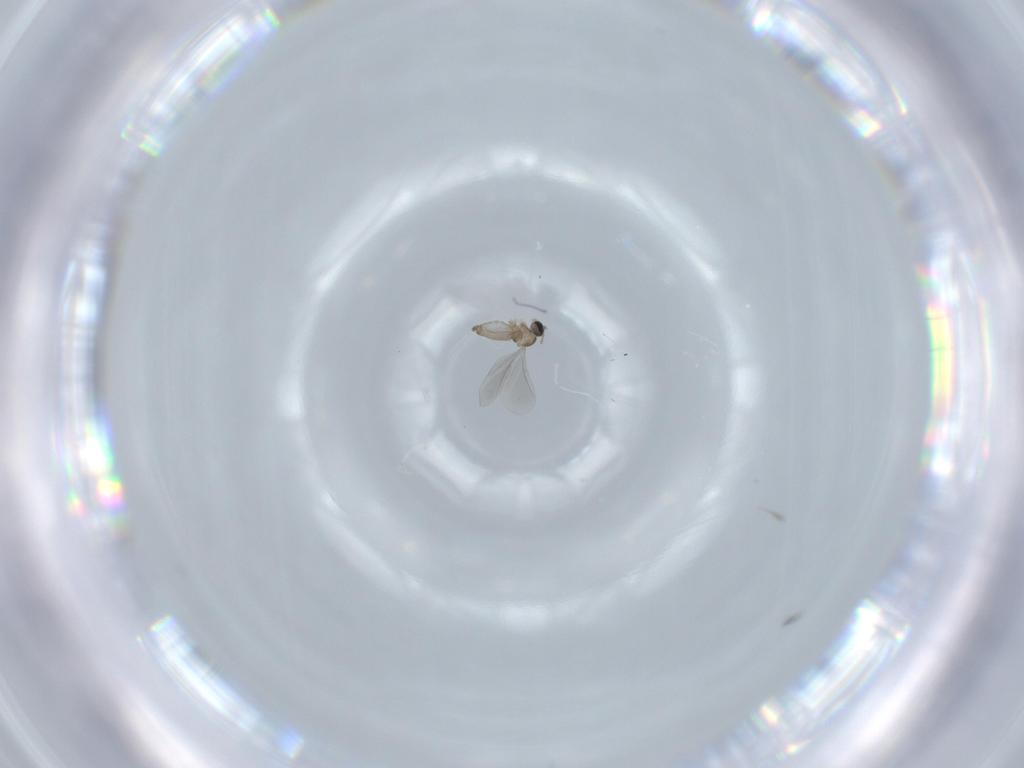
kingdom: Animalia
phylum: Arthropoda
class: Insecta
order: Diptera
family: Cecidomyiidae
